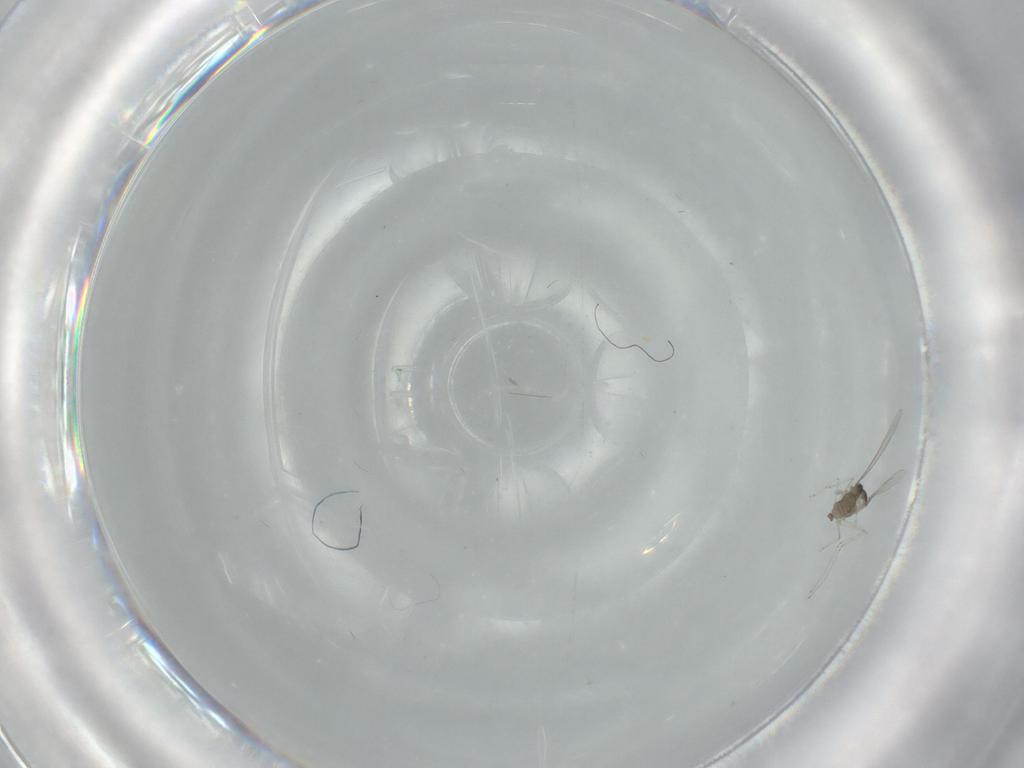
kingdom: Animalia
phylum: Arthropoda
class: Insecta
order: Diptera
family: Cecidomyiidae
